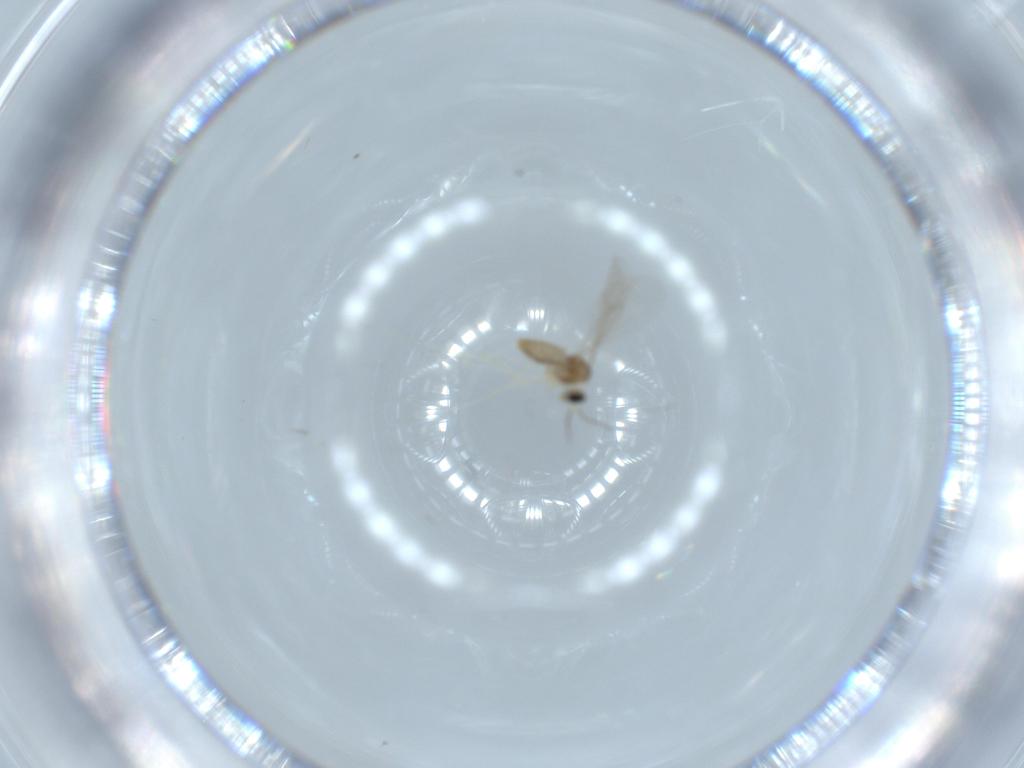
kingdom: Animalia
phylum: Arthropoda
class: Insecta
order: Diptera
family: Cecidomyiidae
